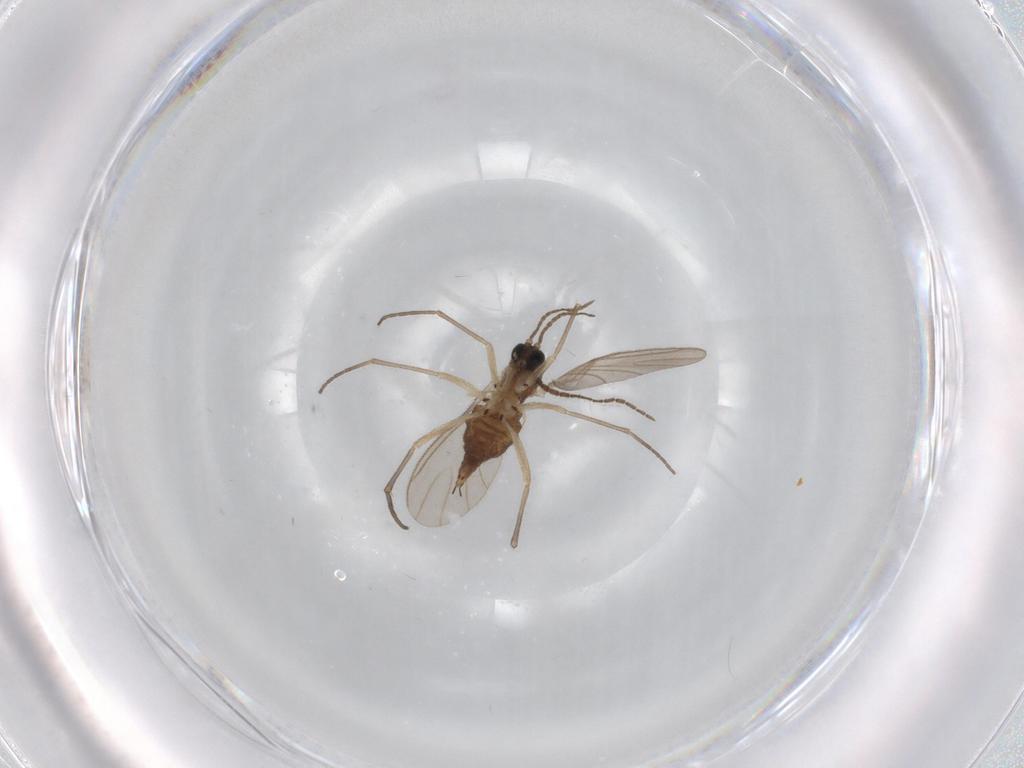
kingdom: Animalia
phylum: Arthropoda
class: Insecta
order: Diptera
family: Sciaridae
